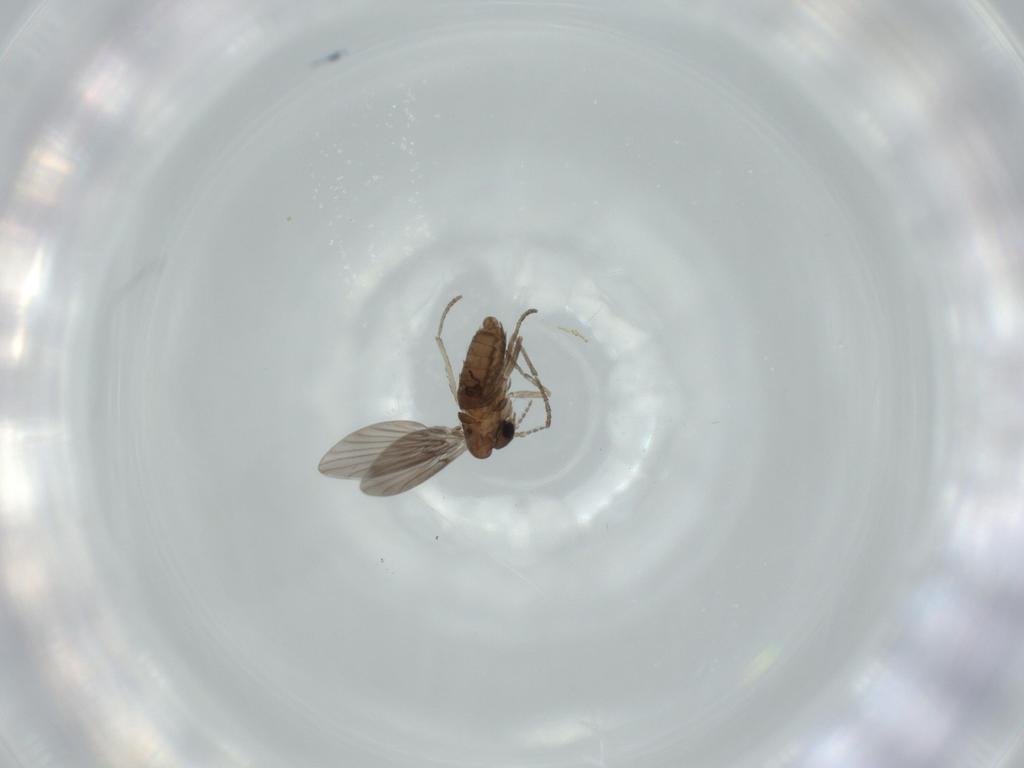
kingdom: Animalia
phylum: Arthropoda
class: Insecta
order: Diptera
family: Psychodidae
